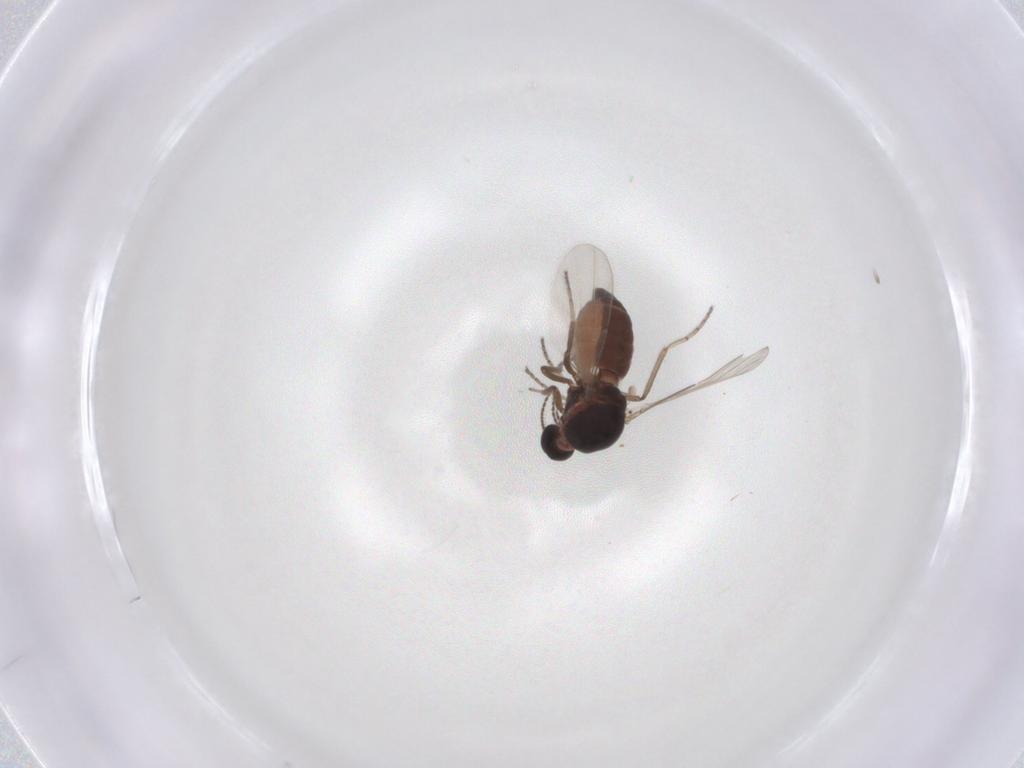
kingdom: Animalia
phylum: Arthropoda
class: Insecta
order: Diptera
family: Ceratopogonidae
